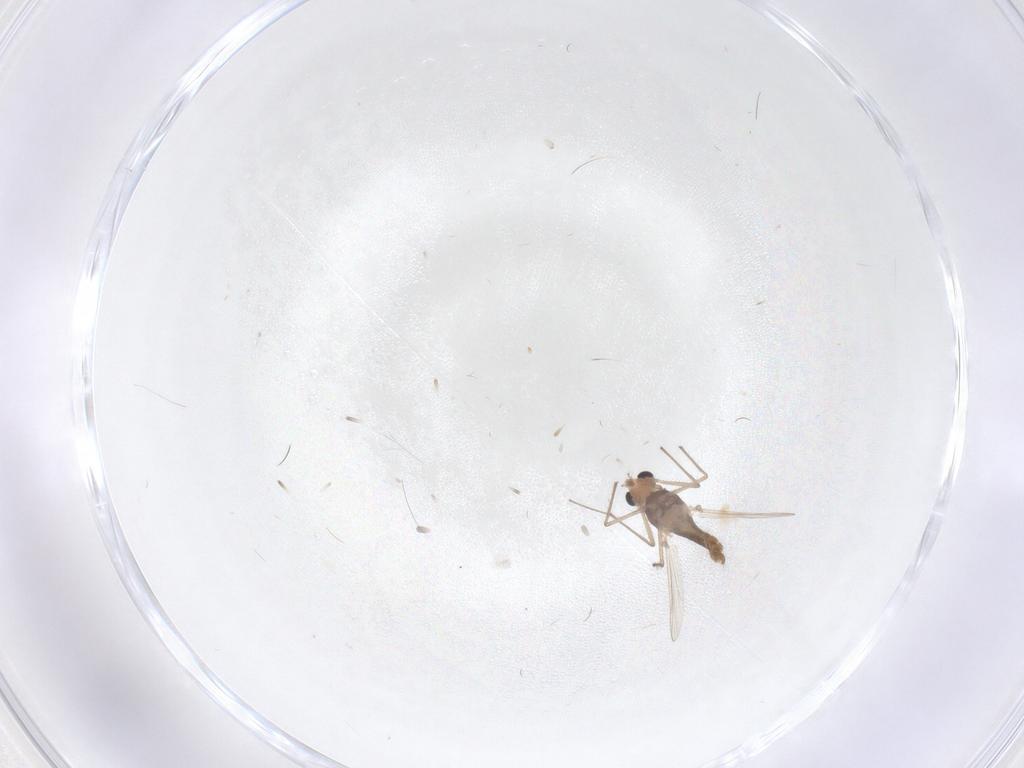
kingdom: Animalia
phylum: Arthropoda
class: Insecta
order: Diptera
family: Chironomidae
